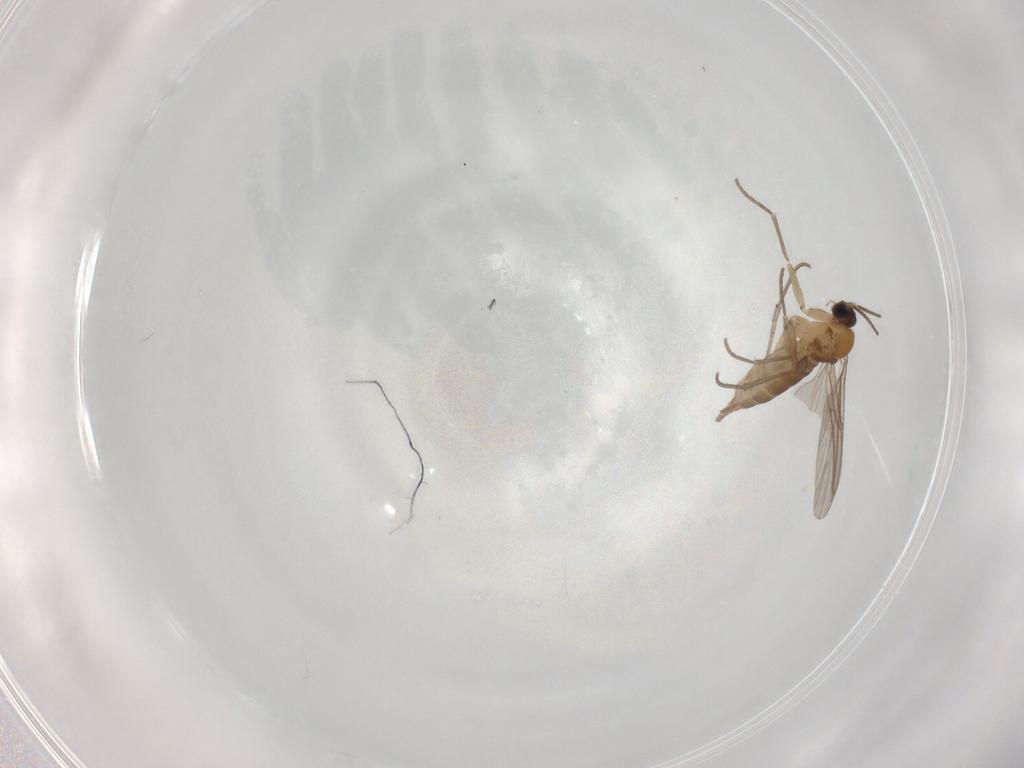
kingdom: Animalia
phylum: Arthropoda
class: Insecta
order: Diptera
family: Sciaridae
